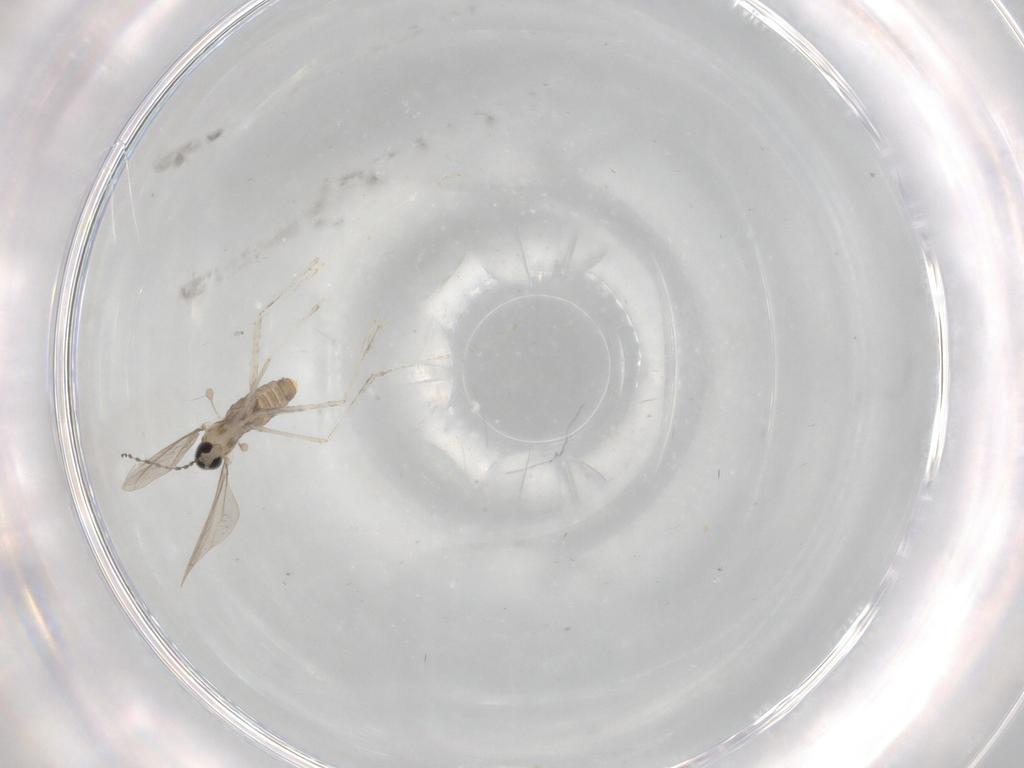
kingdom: Animalia
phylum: Arthropoda
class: Insecta
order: Diptera
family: Cecidomyiidae
